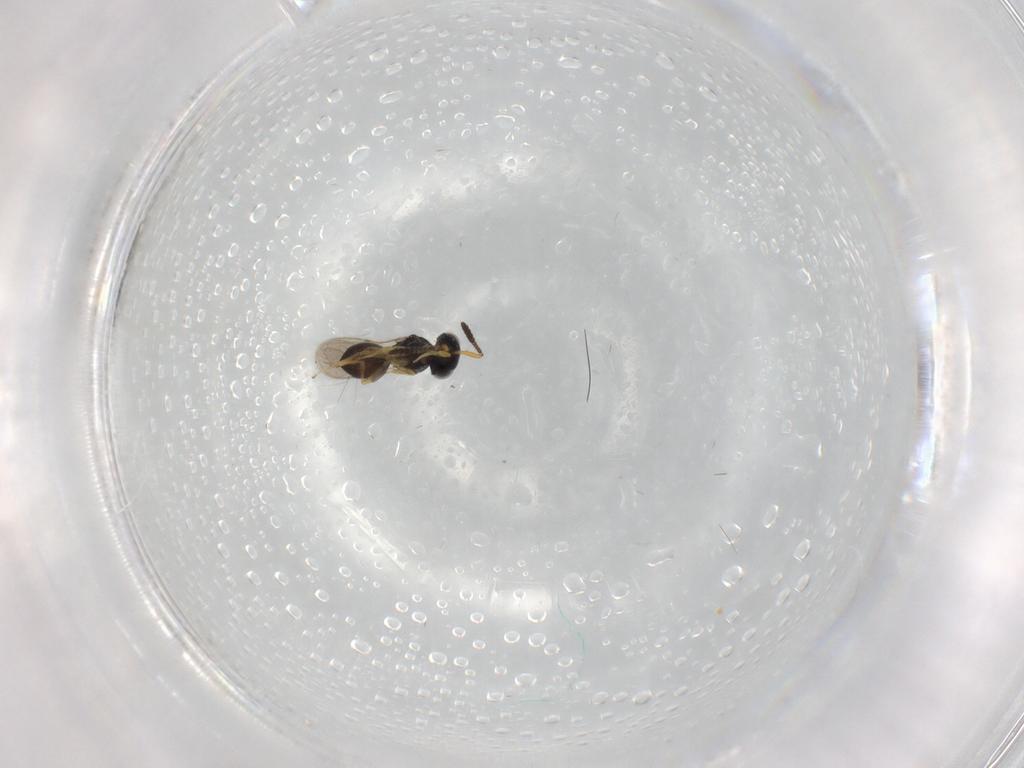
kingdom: Animalia
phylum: Arthropoda
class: Insecta
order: Hymenoptera
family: Scelionidae
